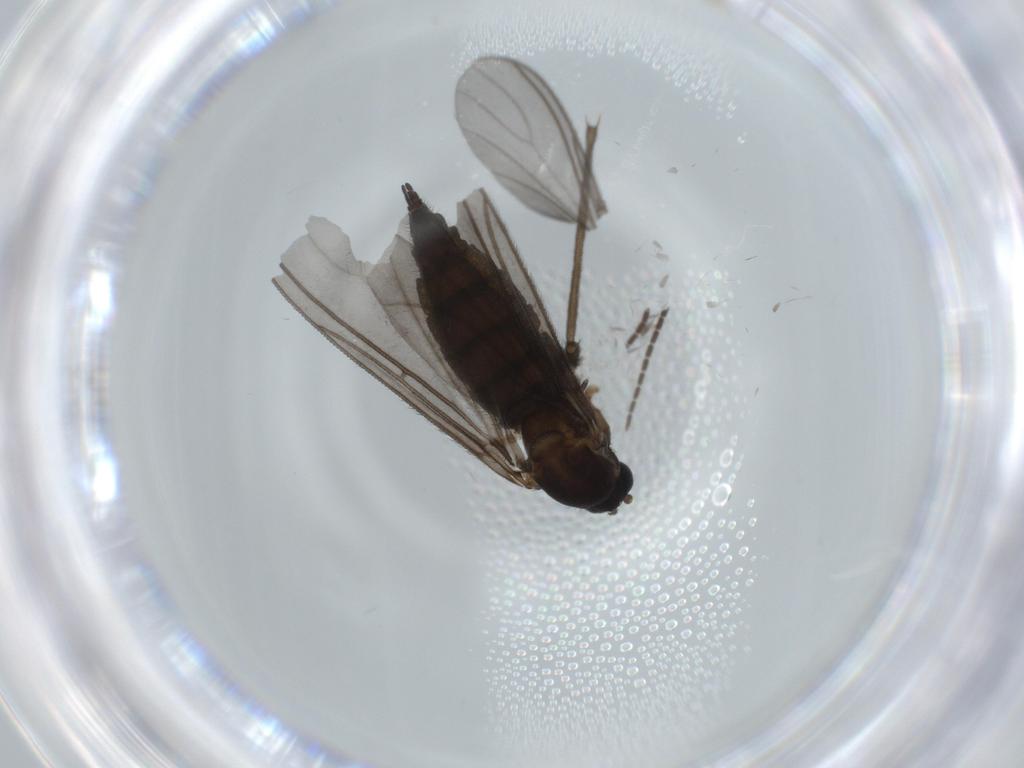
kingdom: Animalia
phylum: Arthropoda
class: Insecta
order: Diptera
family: Sciaridae
